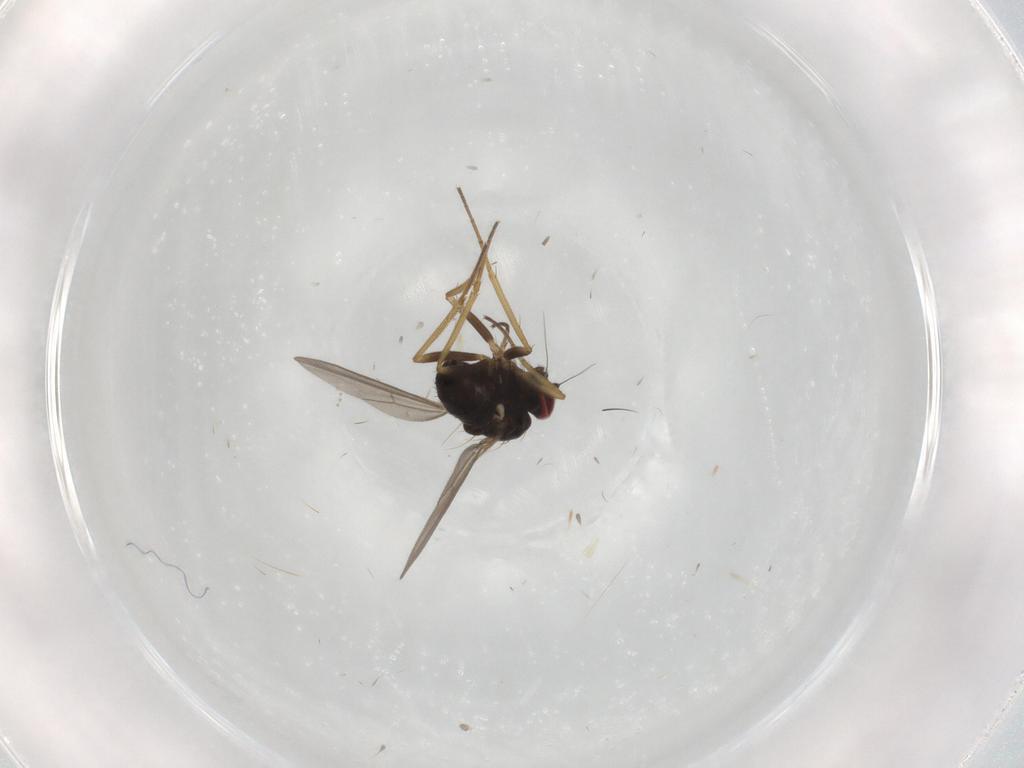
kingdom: Animalia
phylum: Arthropoda
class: Insecta
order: Diptera
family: Dolichopodidae
